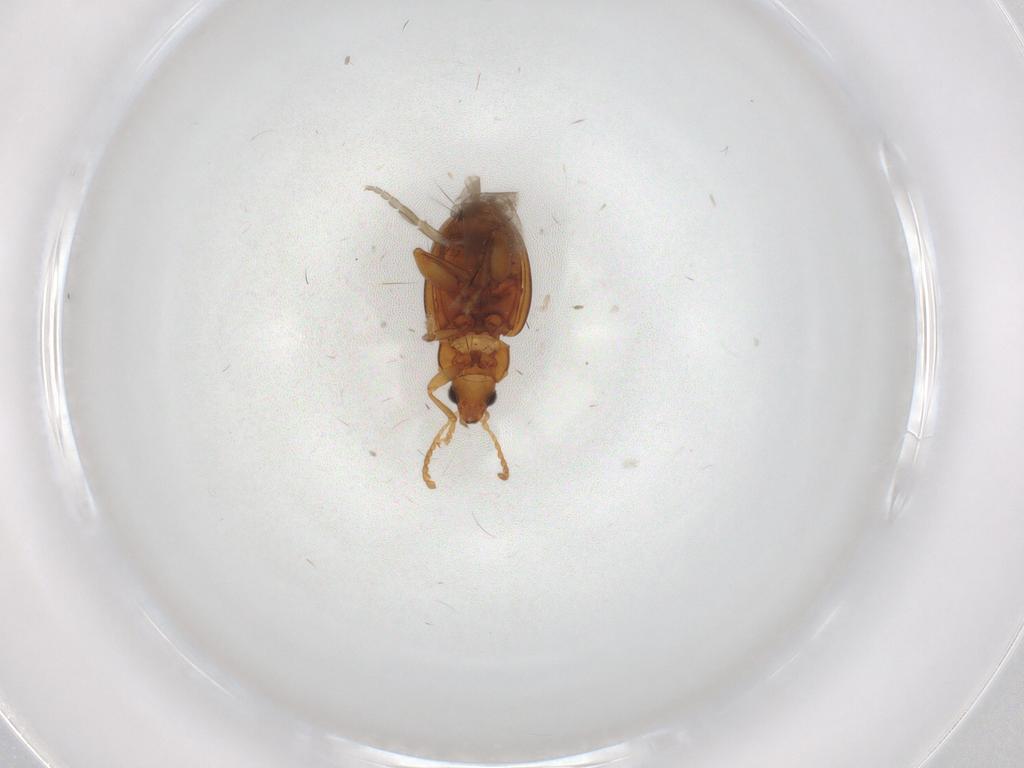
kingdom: Animalia
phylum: Arthropoda
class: Insecta
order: Coleoptera
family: Chrysomelidae
